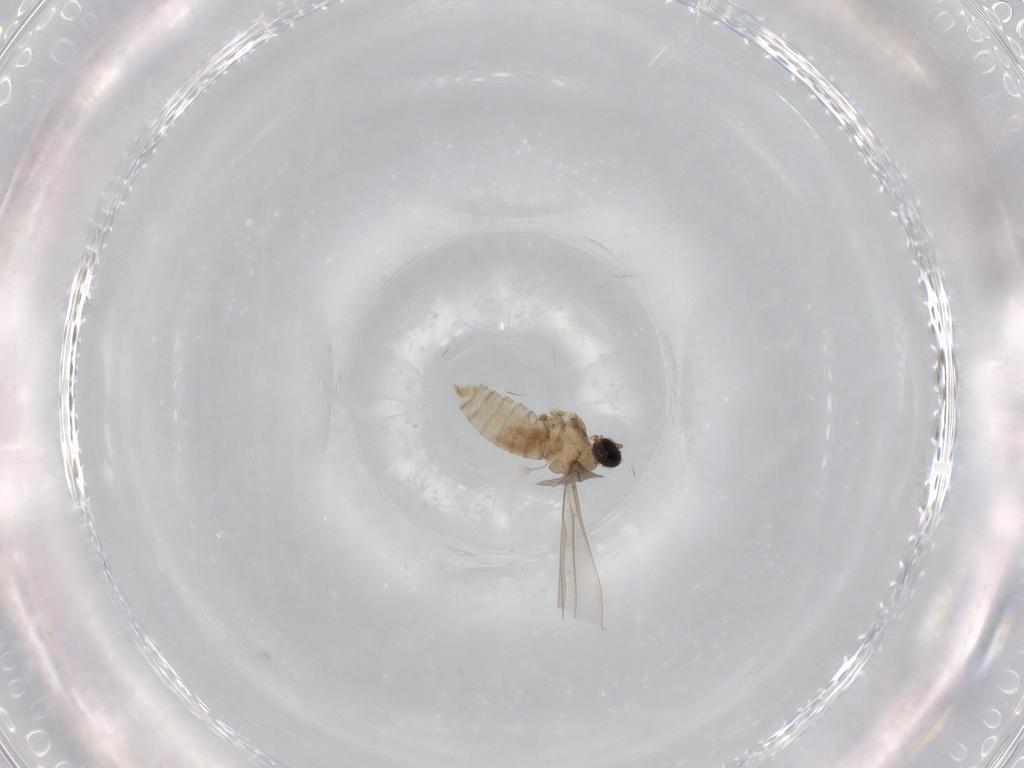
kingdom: Animalia
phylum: Arthropoda
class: Insecta
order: Diptera
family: Cecidomyiidae
